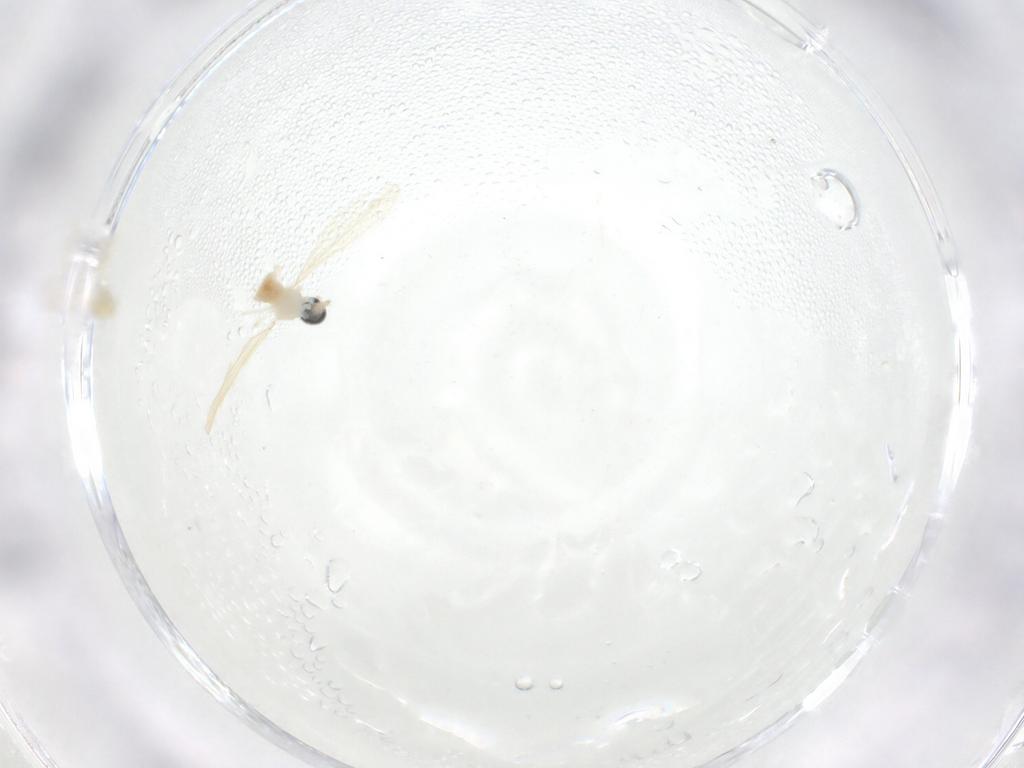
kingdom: Animalia
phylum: Arthropoda
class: Insecta
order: Diptera
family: Cecidomyiidae
